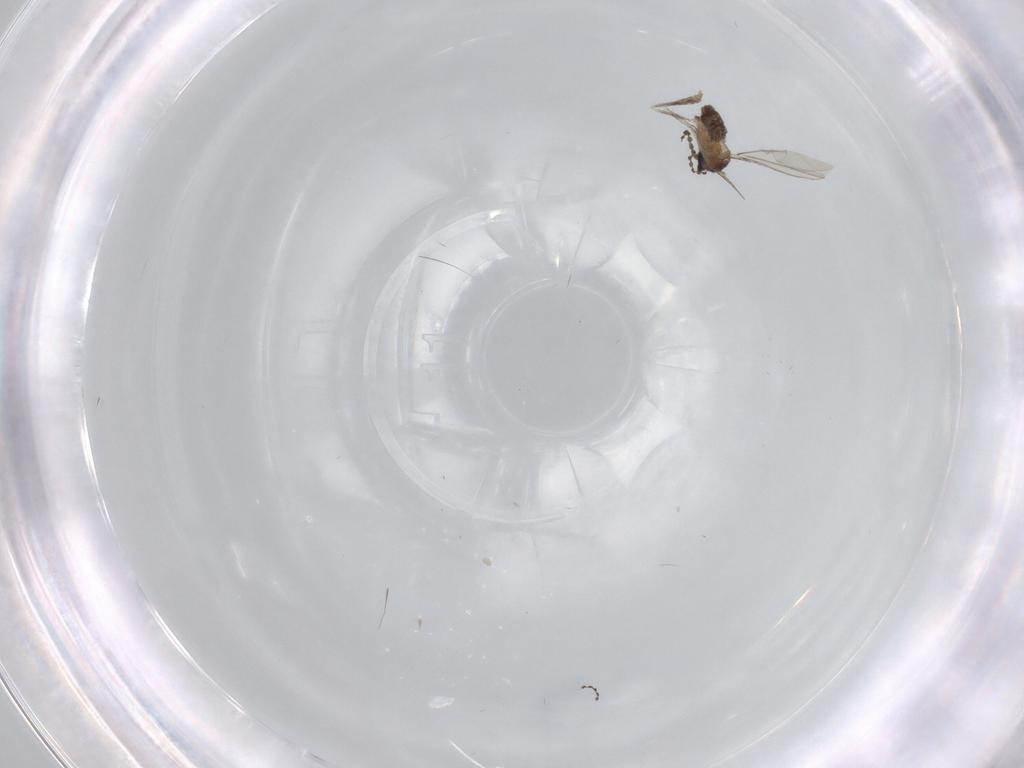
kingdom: Animalia
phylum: Arthropoda
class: Insecta
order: Diptera
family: Cecidomyiidae
